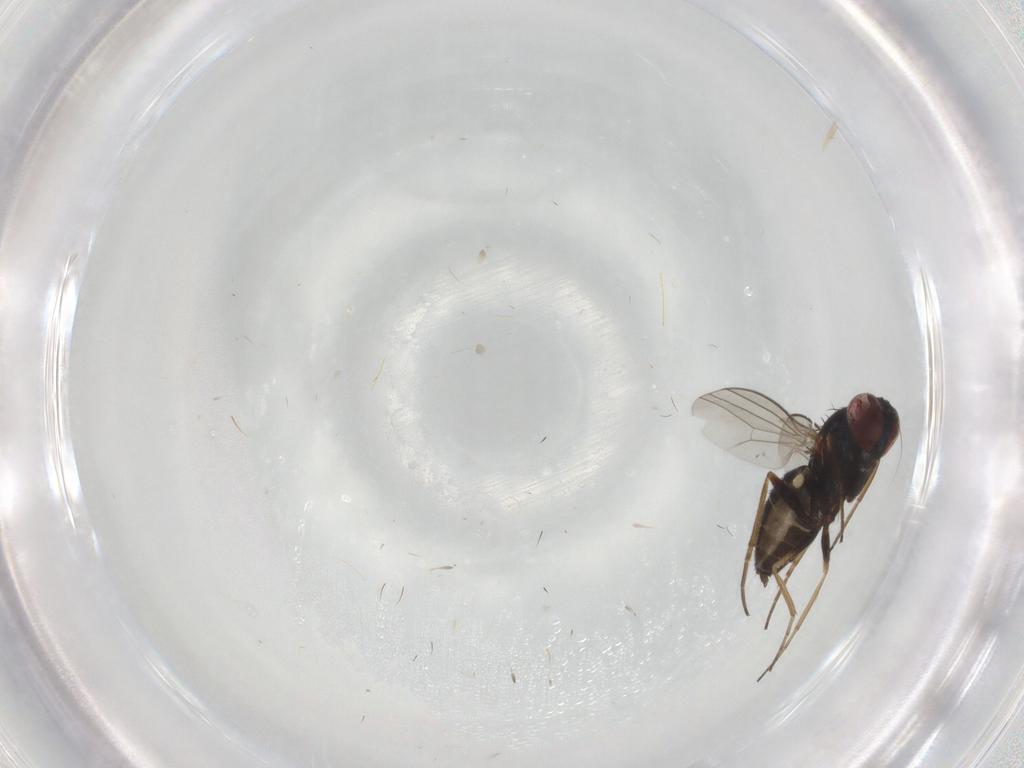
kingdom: Animalia
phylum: Arthropoda
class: Insecta
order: Diptera
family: Dolichopodidae
